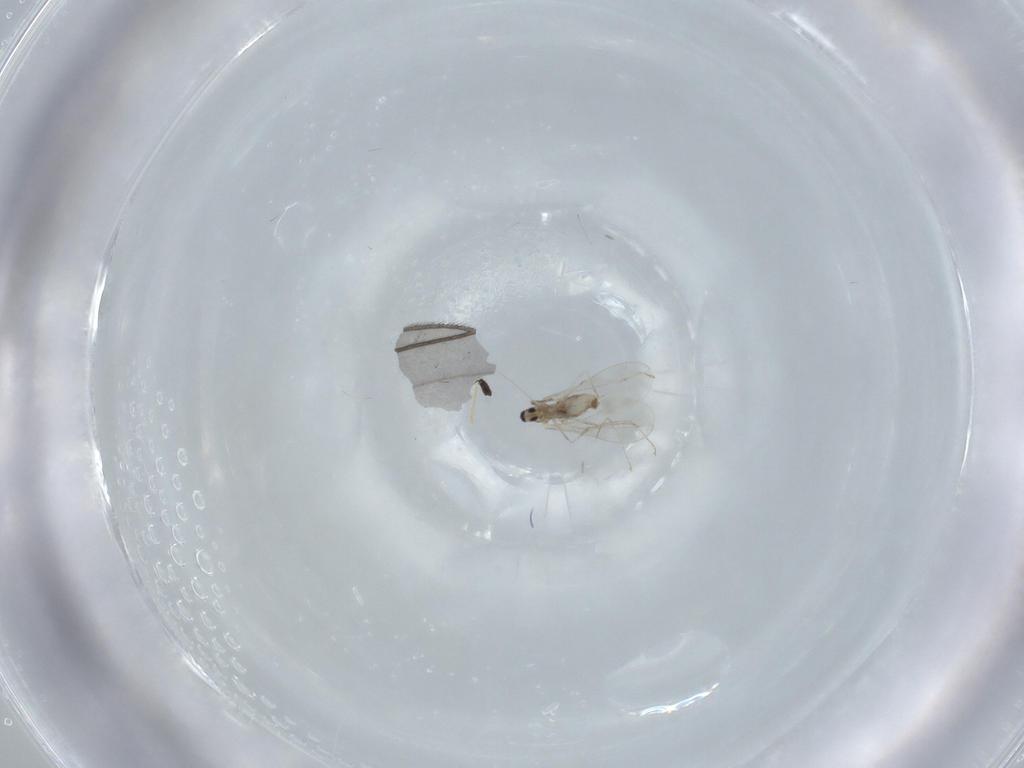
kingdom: Animalia
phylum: Arthropoda
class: Insecta
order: Diptera
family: Cecidomyiidae
